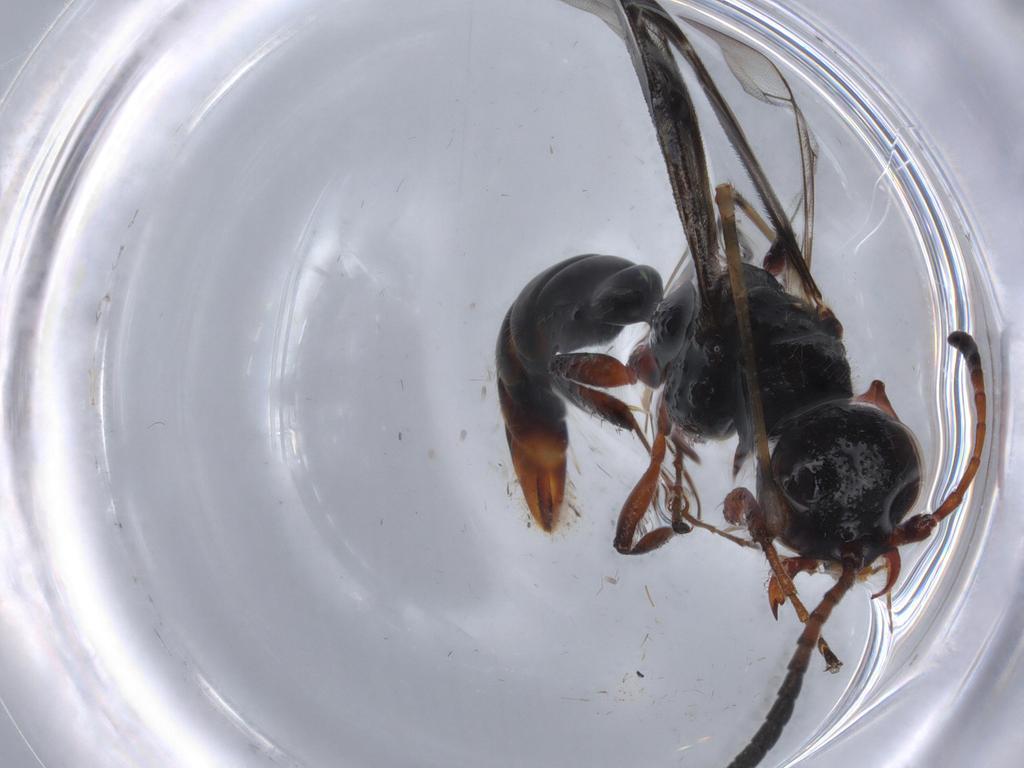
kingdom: Animalia
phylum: Arthropoda
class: Insecta
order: Hymenoptera
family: Thynnidae
